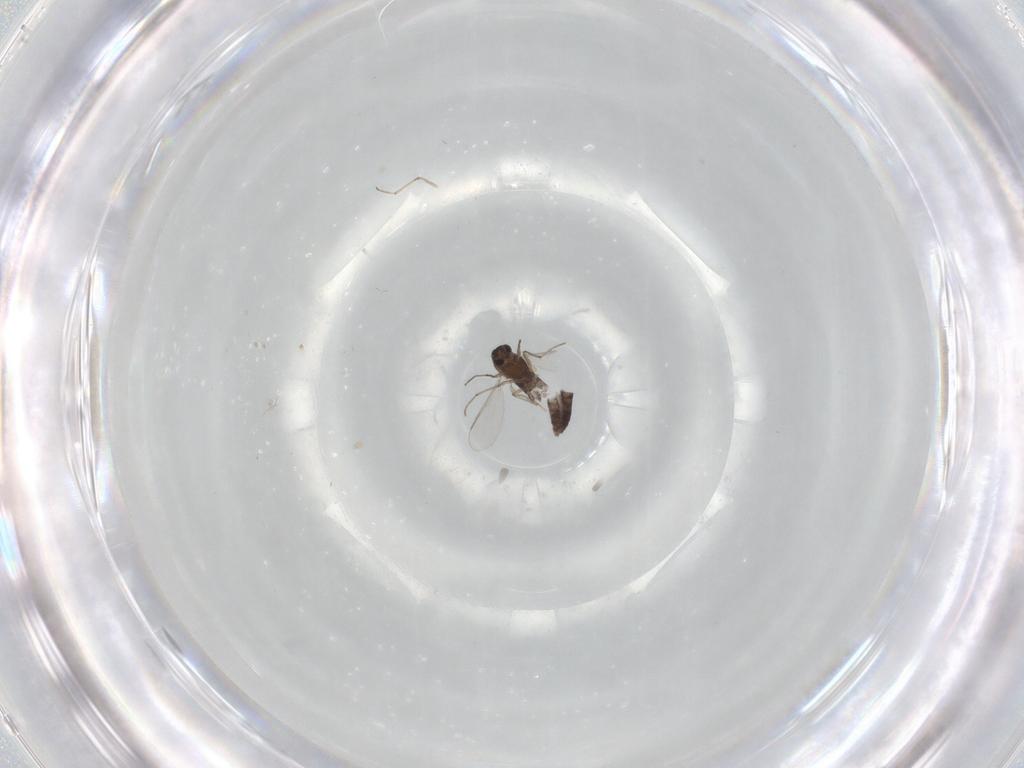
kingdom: Animalia
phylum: Arthropoda
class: Insecta
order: Diptera
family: Chironomidae
